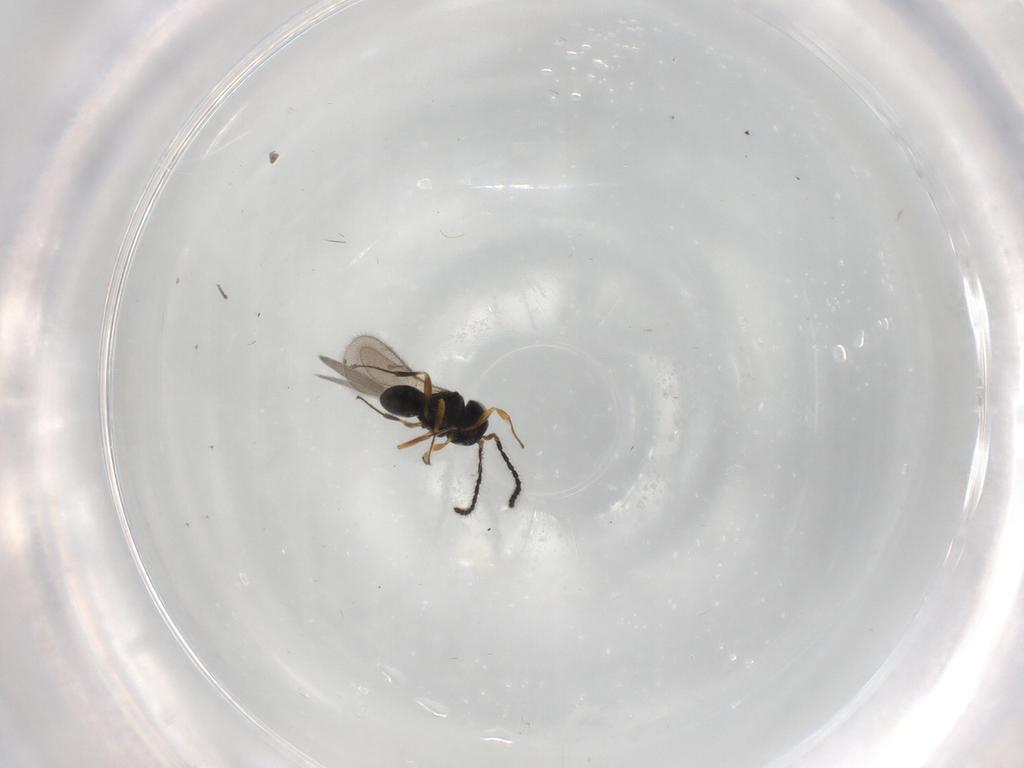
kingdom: Animalia
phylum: Arthropoda
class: Insecta
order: Hymenoptera
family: Scelionidae
